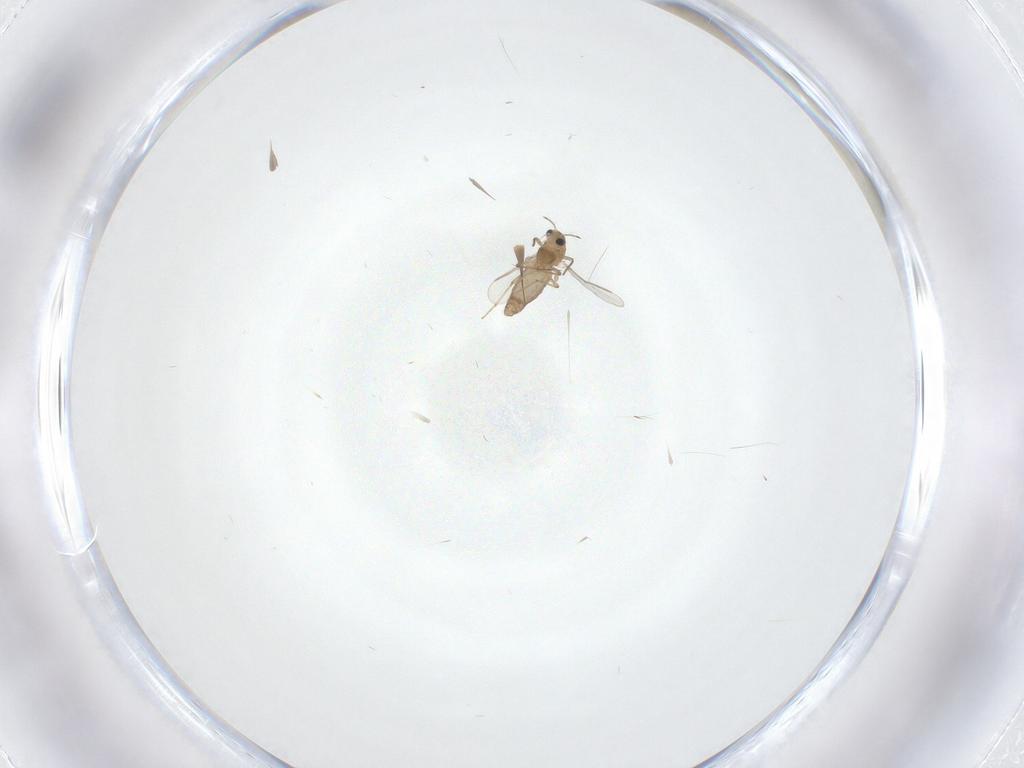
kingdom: Animalia
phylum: Arthropoda
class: Insecta
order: Diptera
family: Chironomidae
